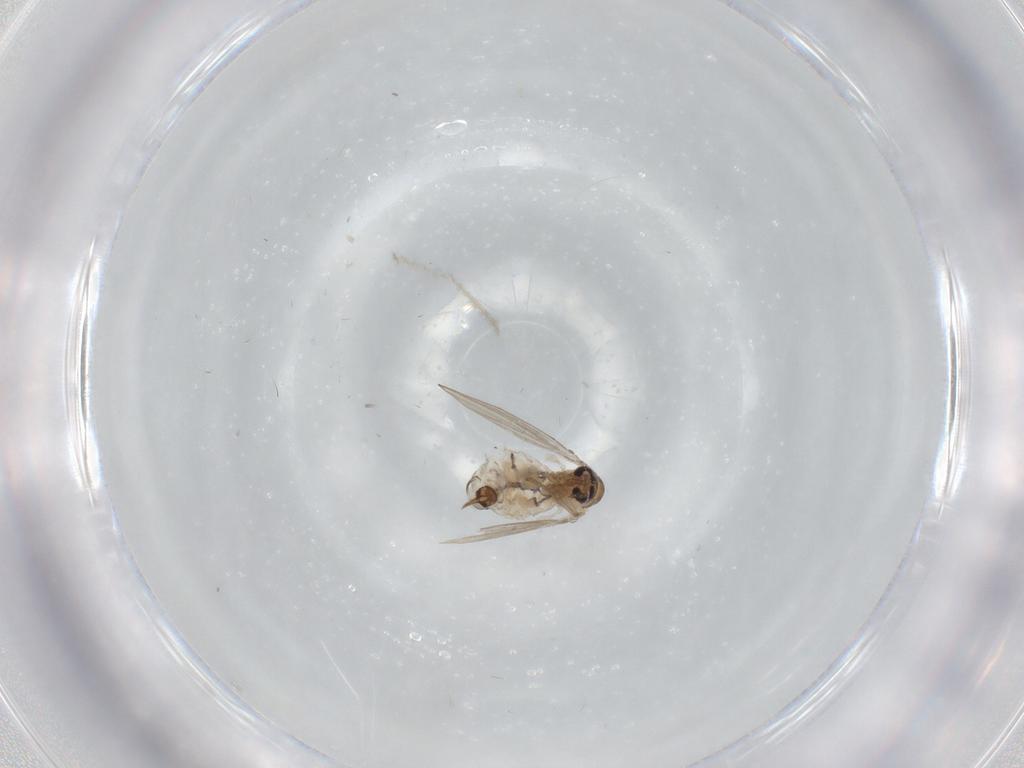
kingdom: Animalia
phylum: Arthropoda
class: Insecta
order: Diptera
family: Psychodidae
